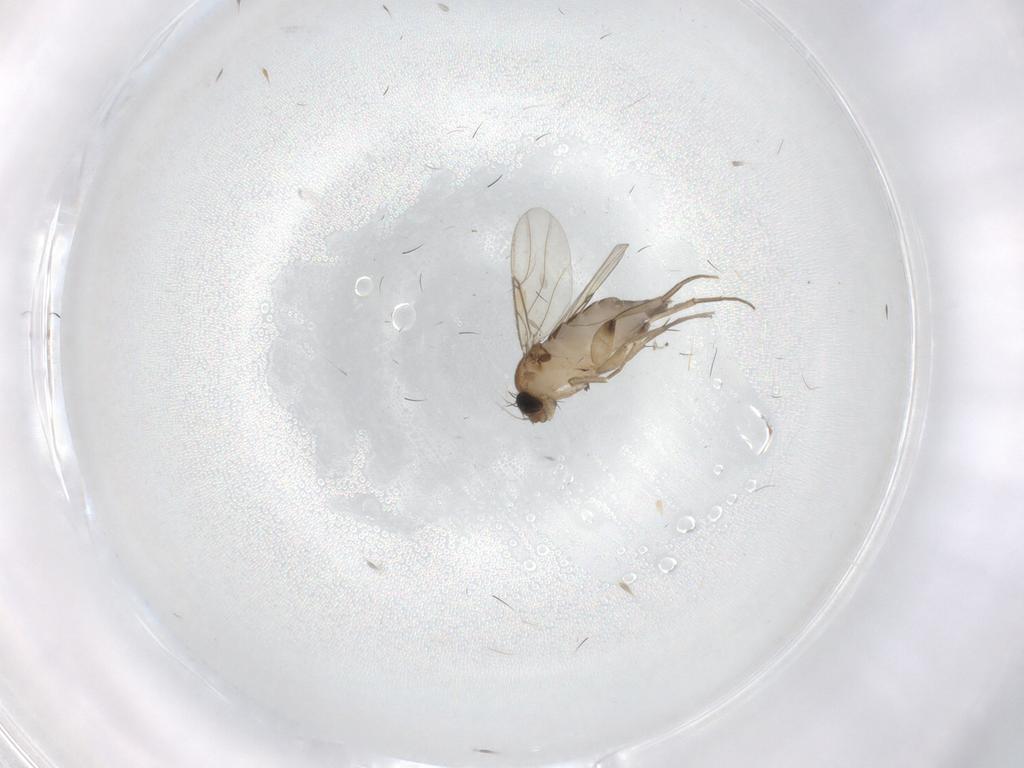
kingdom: Animalia
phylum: Arthropoda
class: Insecta
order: Diptera
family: Phoridae
